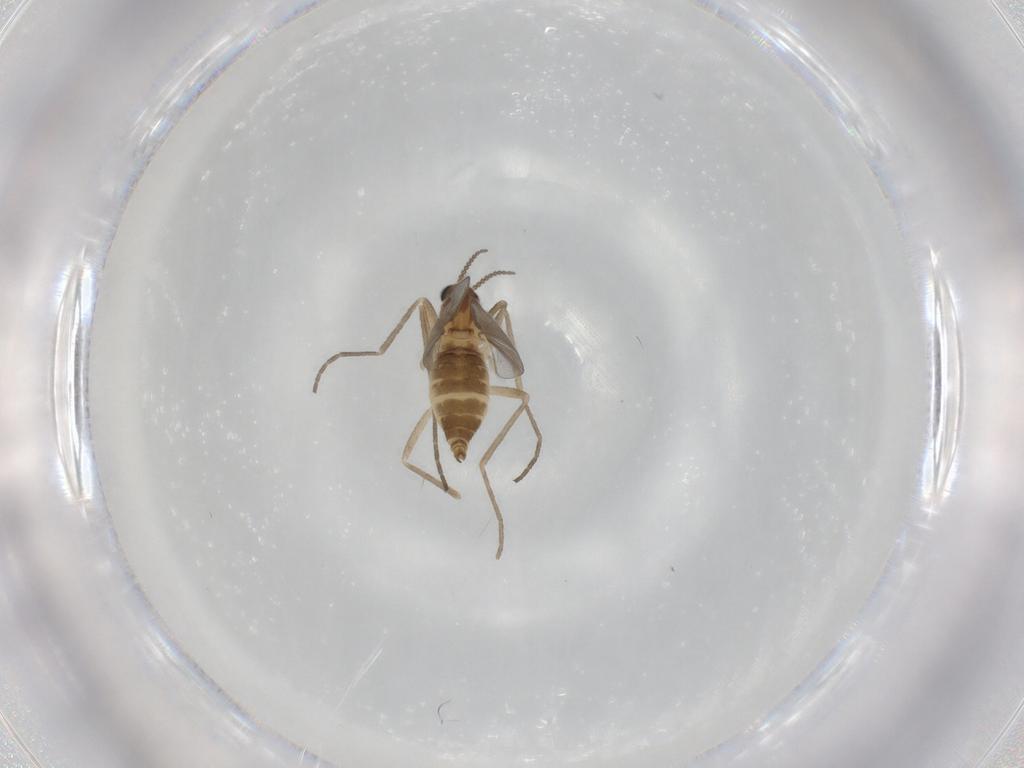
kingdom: Animalia
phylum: Arthropoda
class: Insecta
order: Diptera
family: Cecidomyiidae
